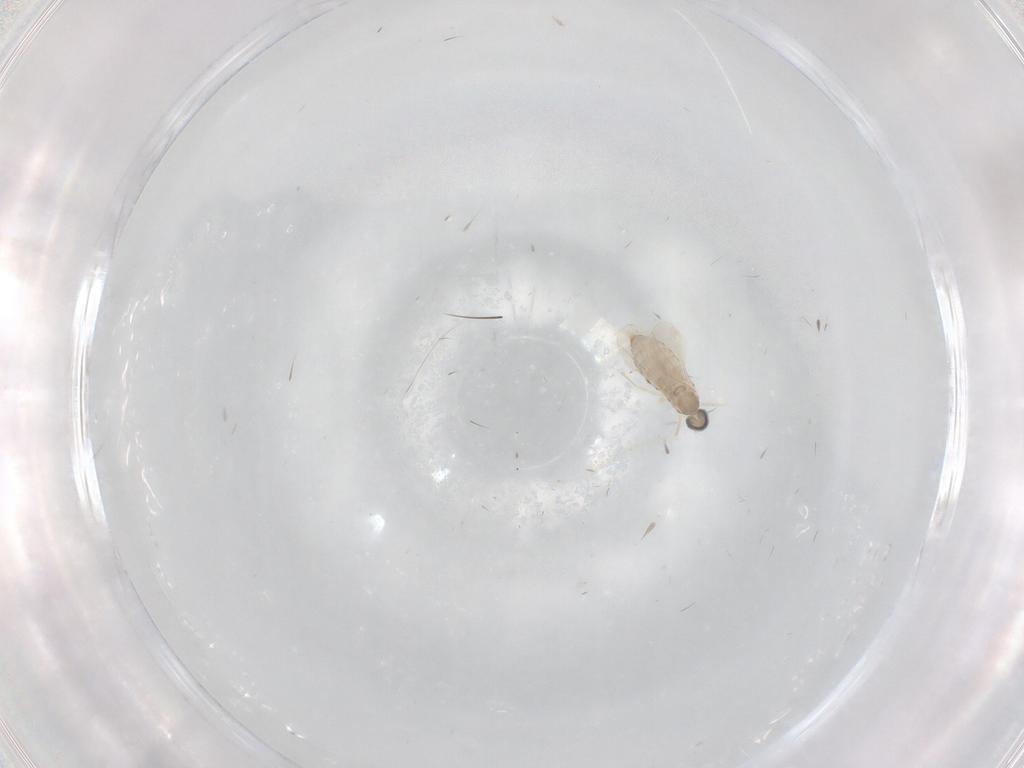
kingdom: Animalia
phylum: Arthropoda
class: Insecta
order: Diptera
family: Cecidomyiidae
